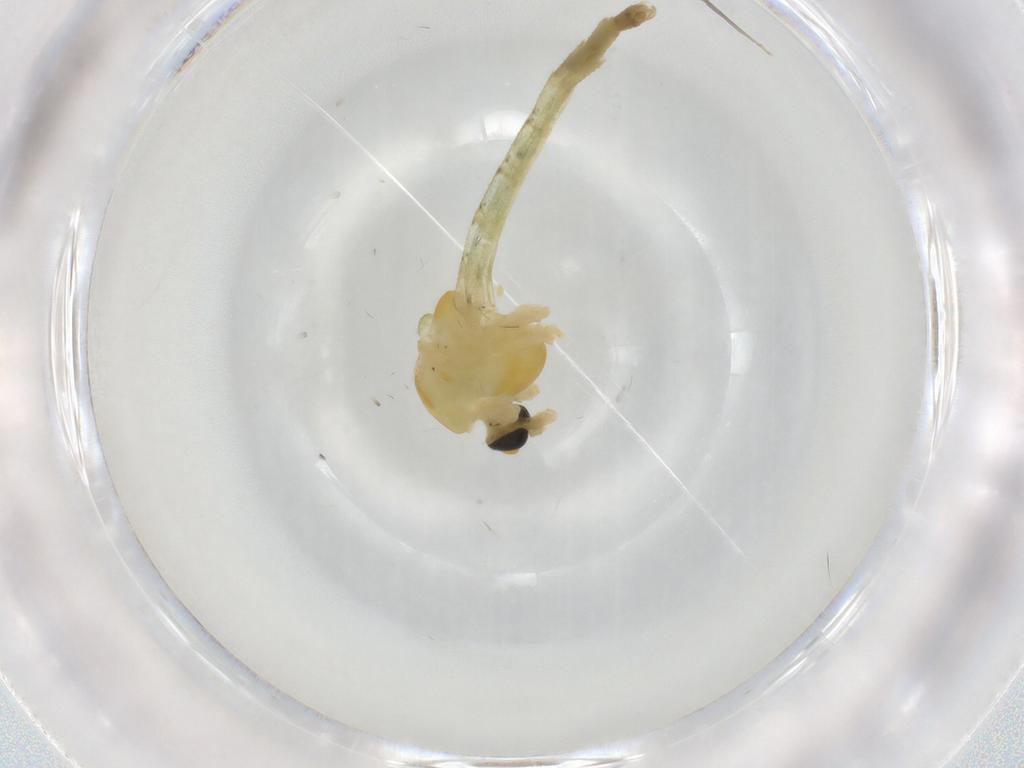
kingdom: Animalia
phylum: Arthropoda
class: Insecta
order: Diptera
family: Chironomidae
